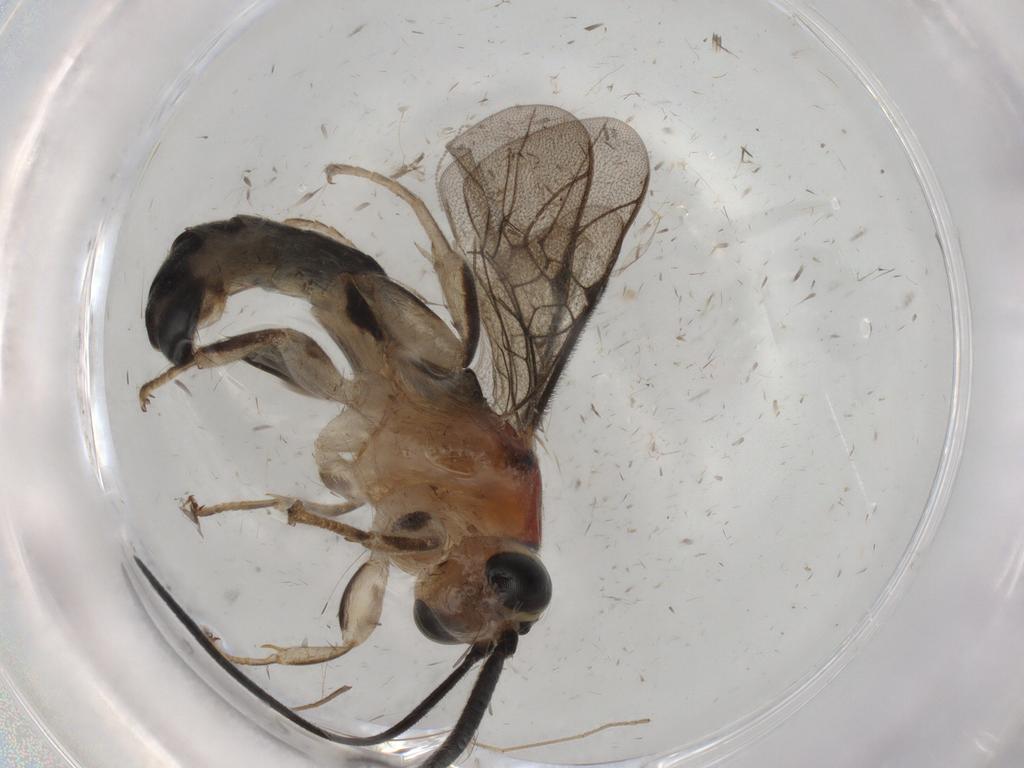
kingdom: Animalia
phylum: Arthropoda
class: Insecta
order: Diptera
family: Bombyliidae
